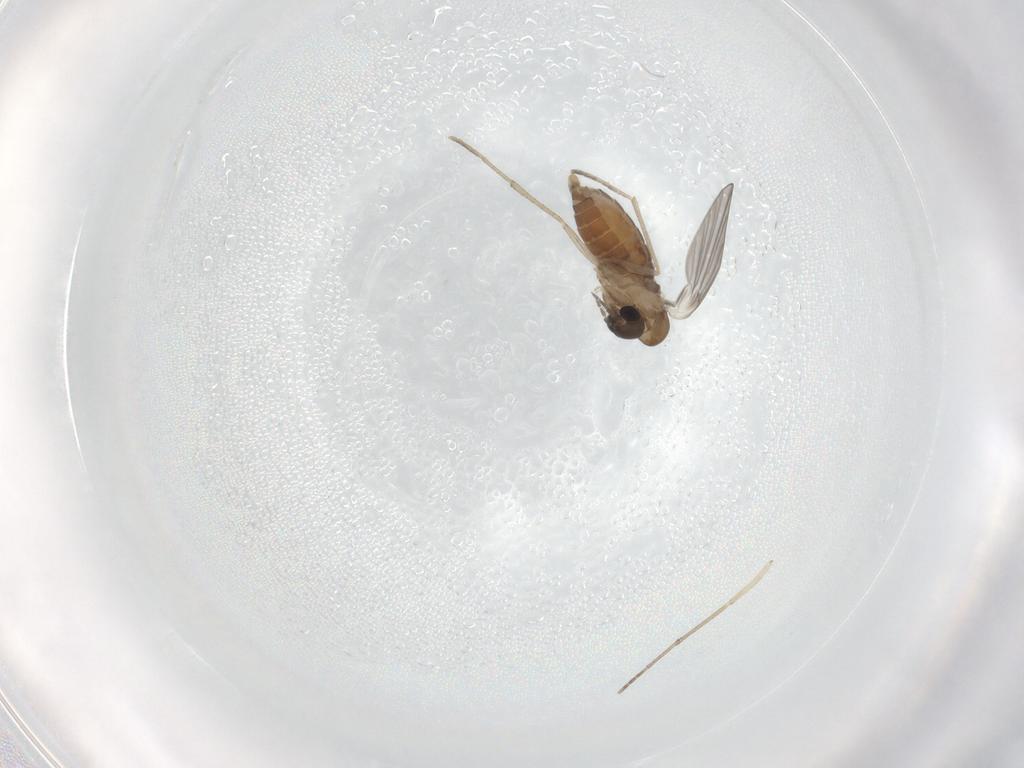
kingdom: Animalia
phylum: Arthropoda
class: Insecta
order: Diptera
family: Cecidomyiidae
